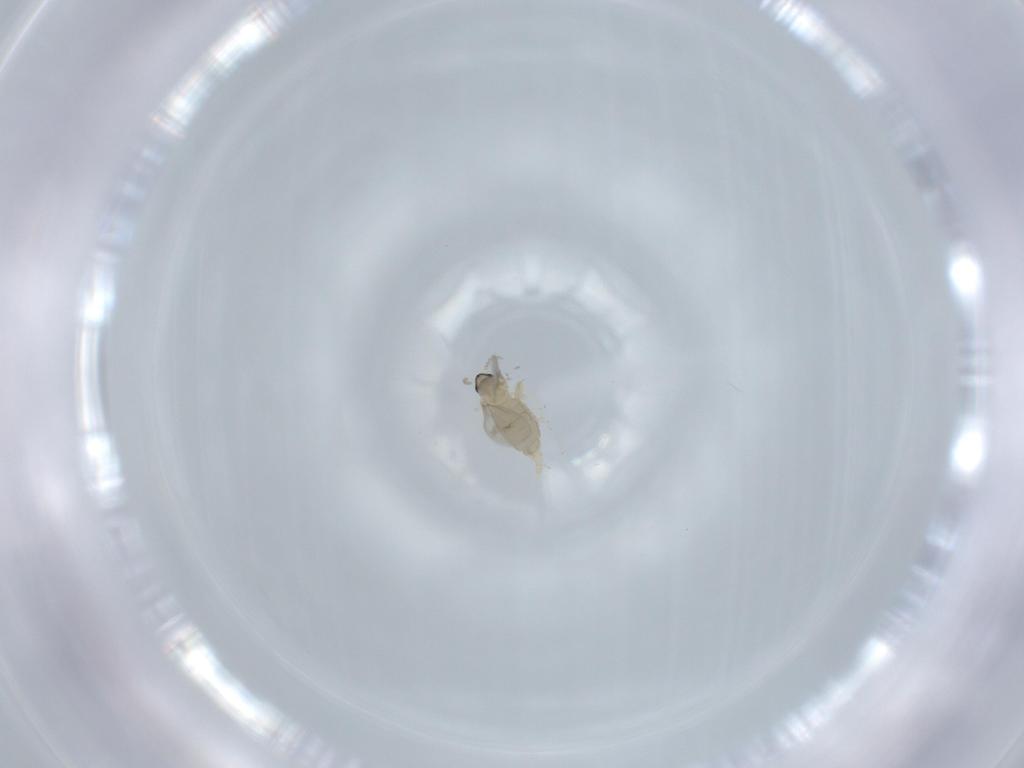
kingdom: Animalia
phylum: Arthropoda
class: Insecta
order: Diptera
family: Cecidomyiidae
